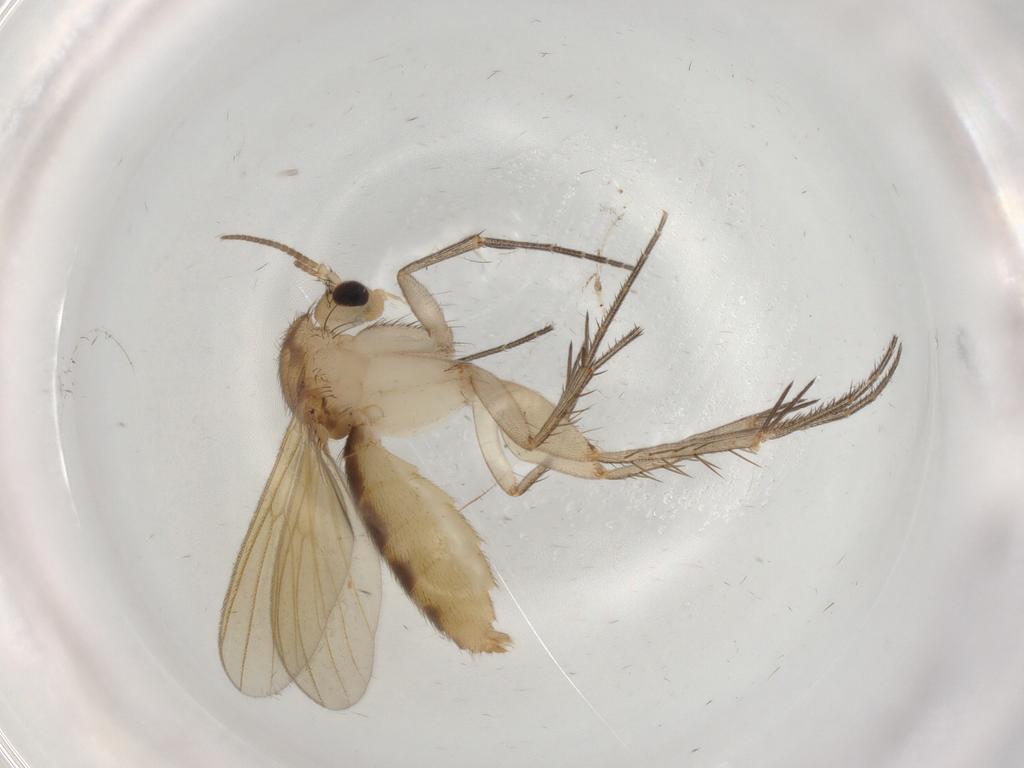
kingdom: Animalia
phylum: Arthropoda
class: Insecta
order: Diptera
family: Mycetophilidae
